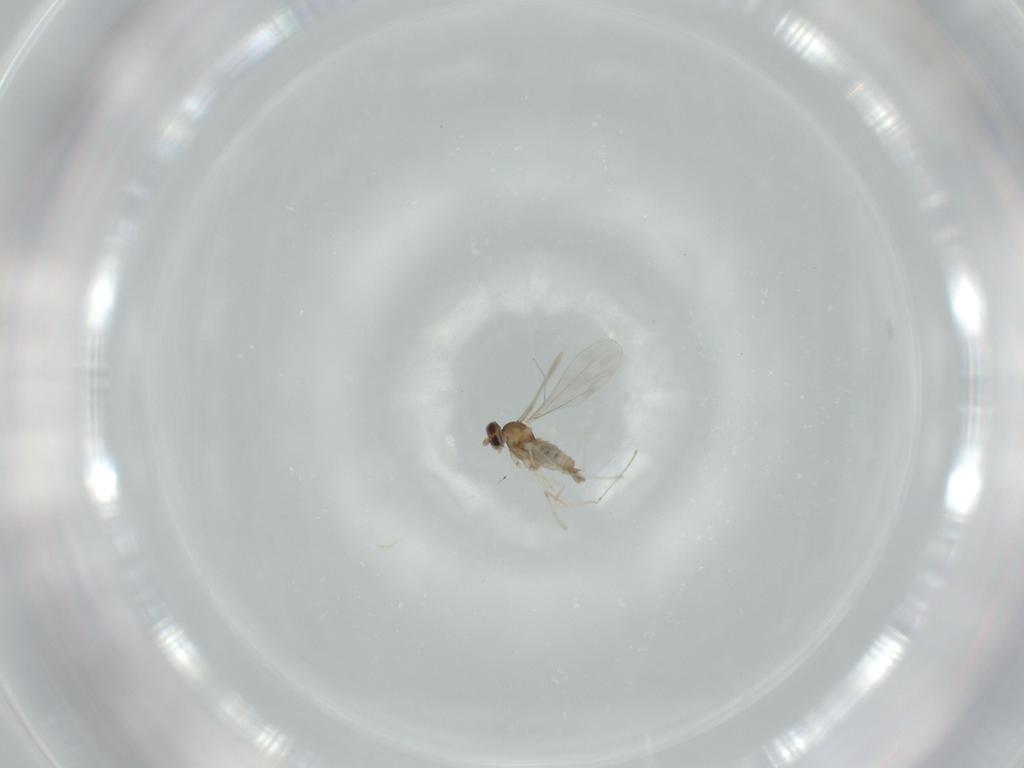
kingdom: Animalia
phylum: Arthropoda
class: Insecta
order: Diptera
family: Cecidomyiidae
